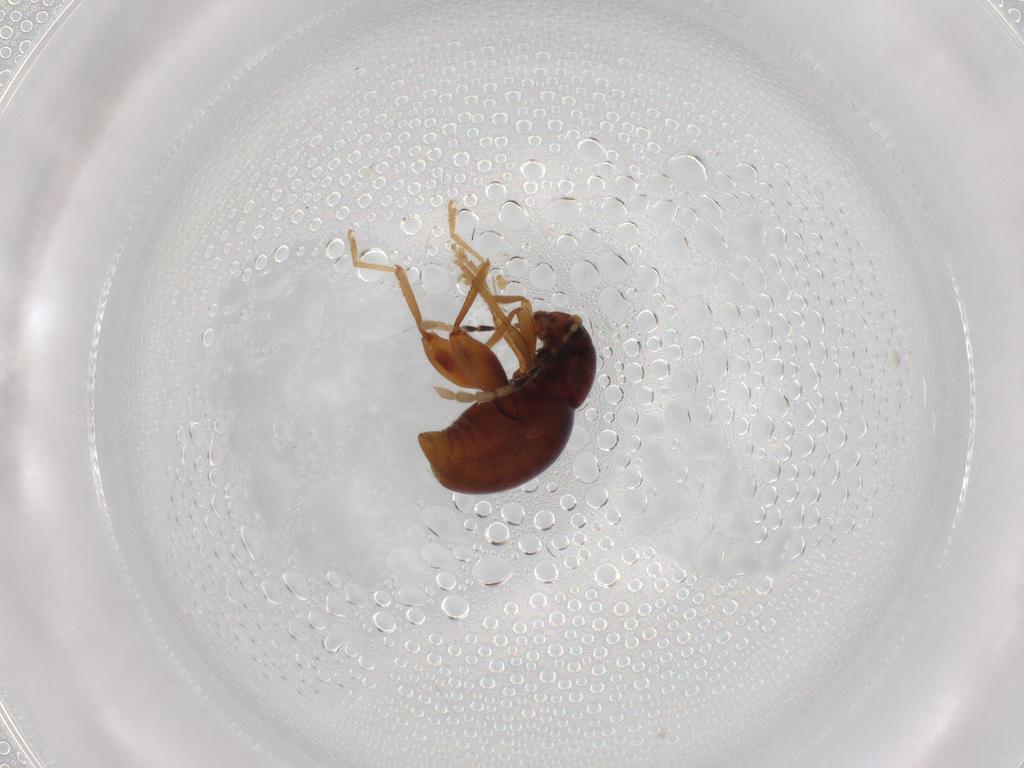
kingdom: Animalia
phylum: Arthropoda
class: Insecta
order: Coleoptera
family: Chrysomelidae
